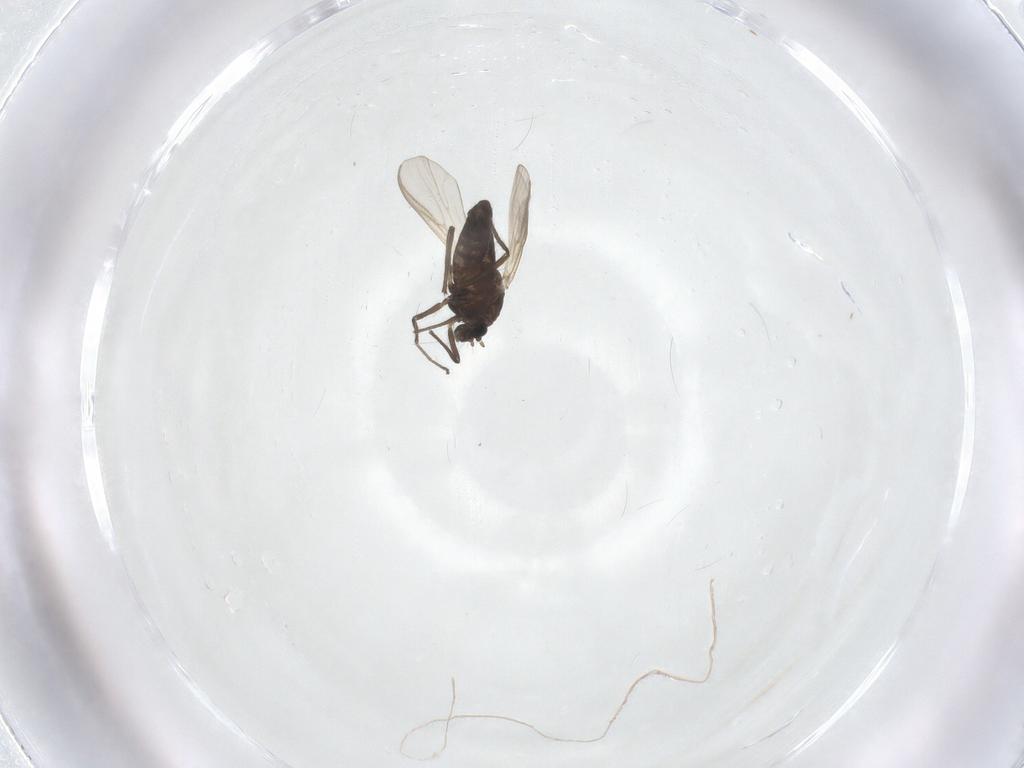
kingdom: Animalia
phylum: Arthropoda
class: Insecta
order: Diptera
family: Chironomidae
